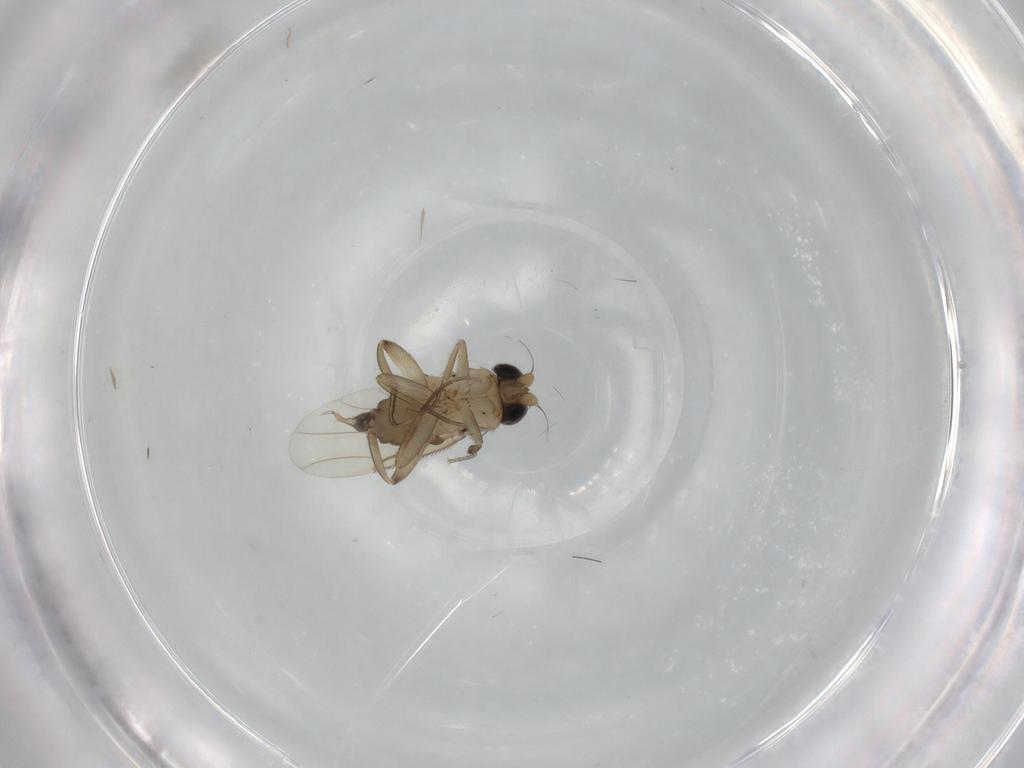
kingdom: Animalia
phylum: Arthropoda
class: Insecta
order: Diptera
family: Phoridae
